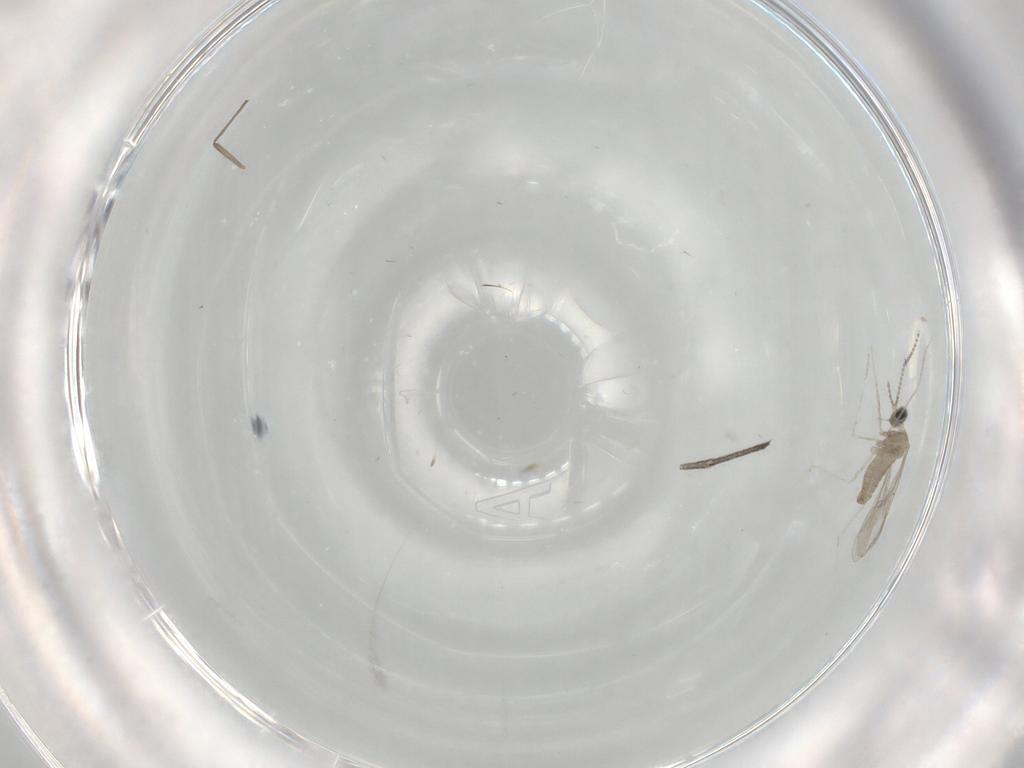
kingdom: Animalia
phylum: Arthropoda
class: Insecta
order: Diptera
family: Cecidomyiidae
